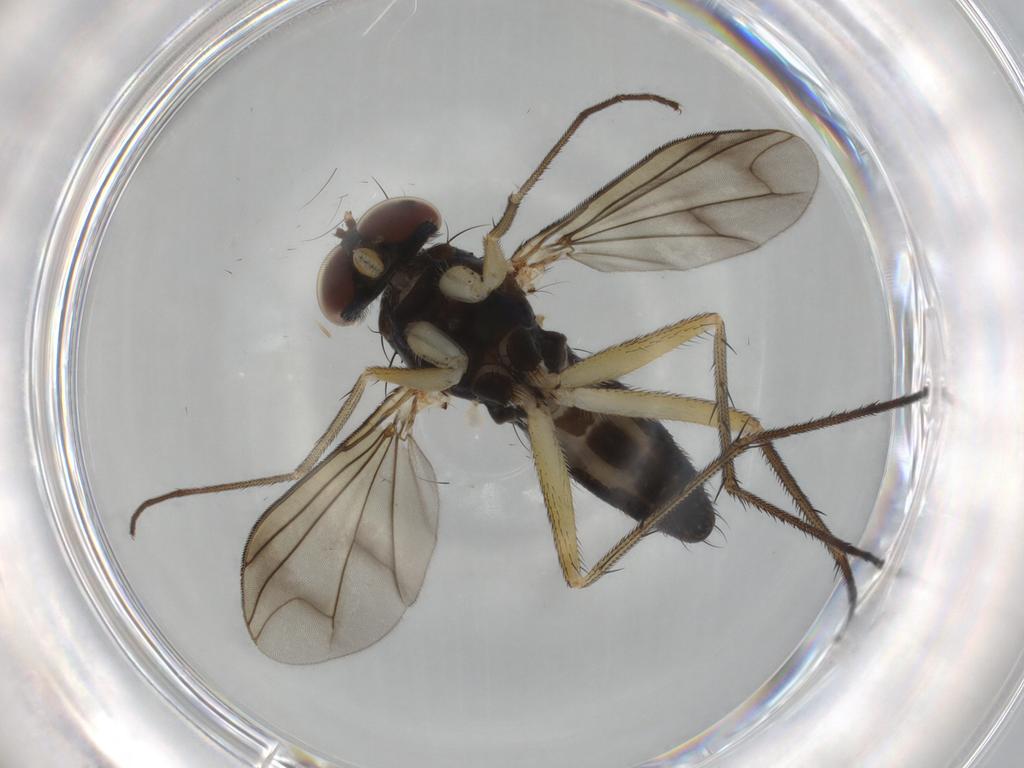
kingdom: Animalia
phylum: Arthropoda
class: Insecta
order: Diptera
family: Dolichopodidae
